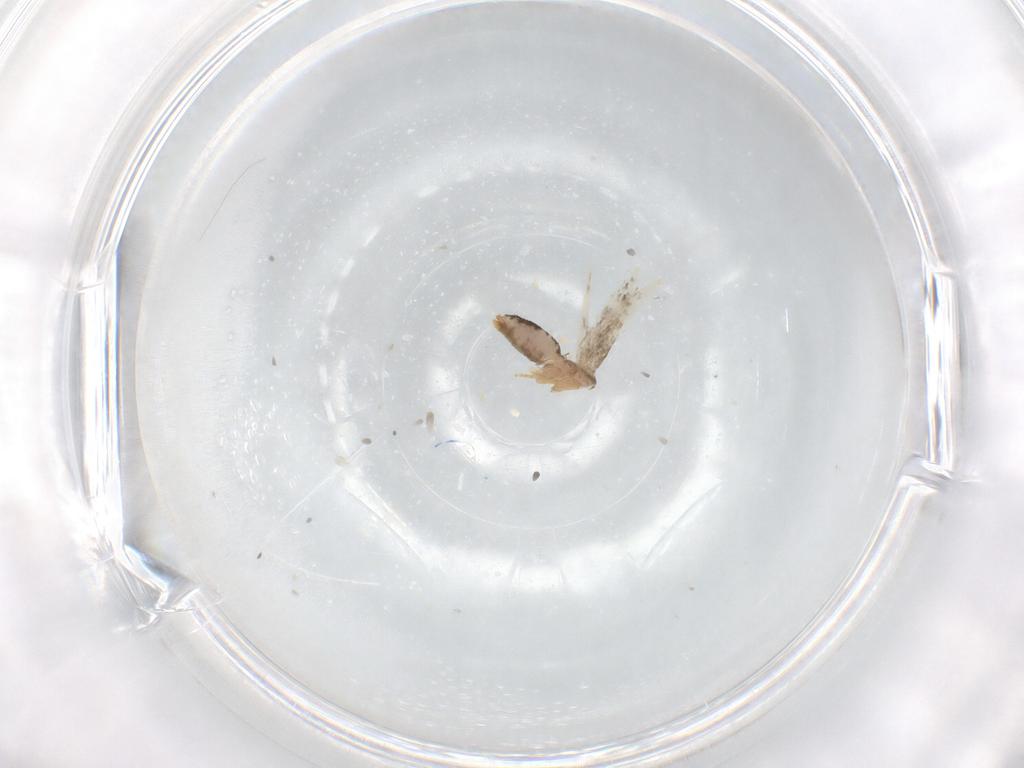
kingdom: Animalia
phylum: Arthropoda
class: Insecta
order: Lepidoptera
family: Nepticulidae
